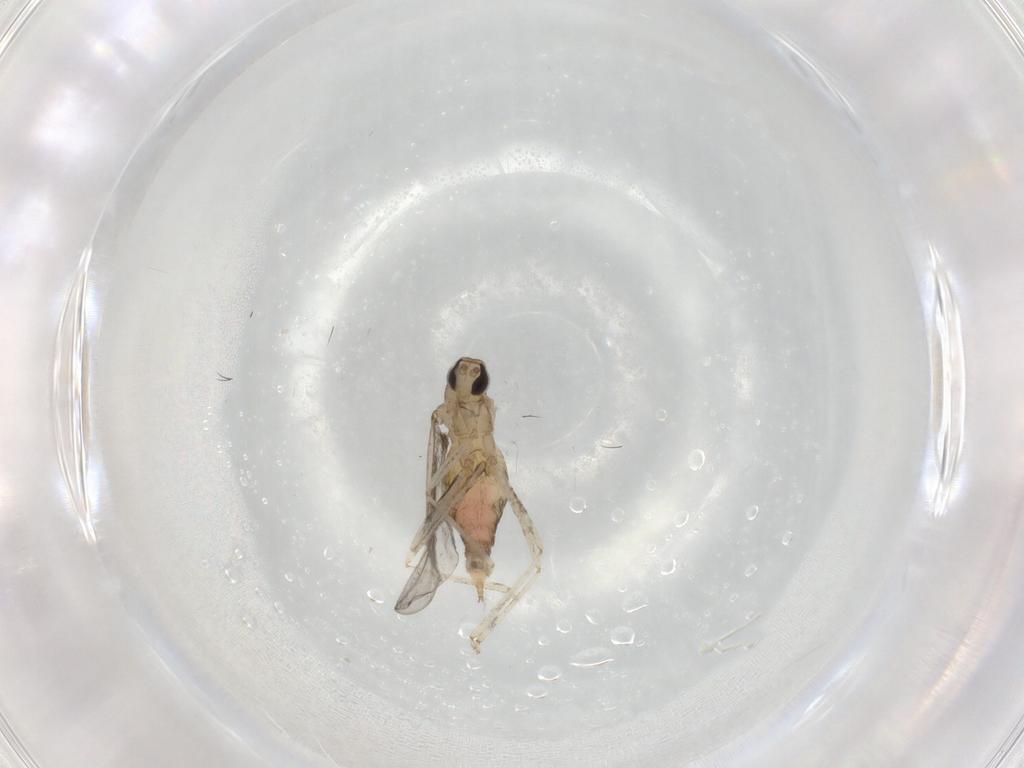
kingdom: Animalia
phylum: Arthropoda
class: Insecta
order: Diptera
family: Cecidomyiidae
